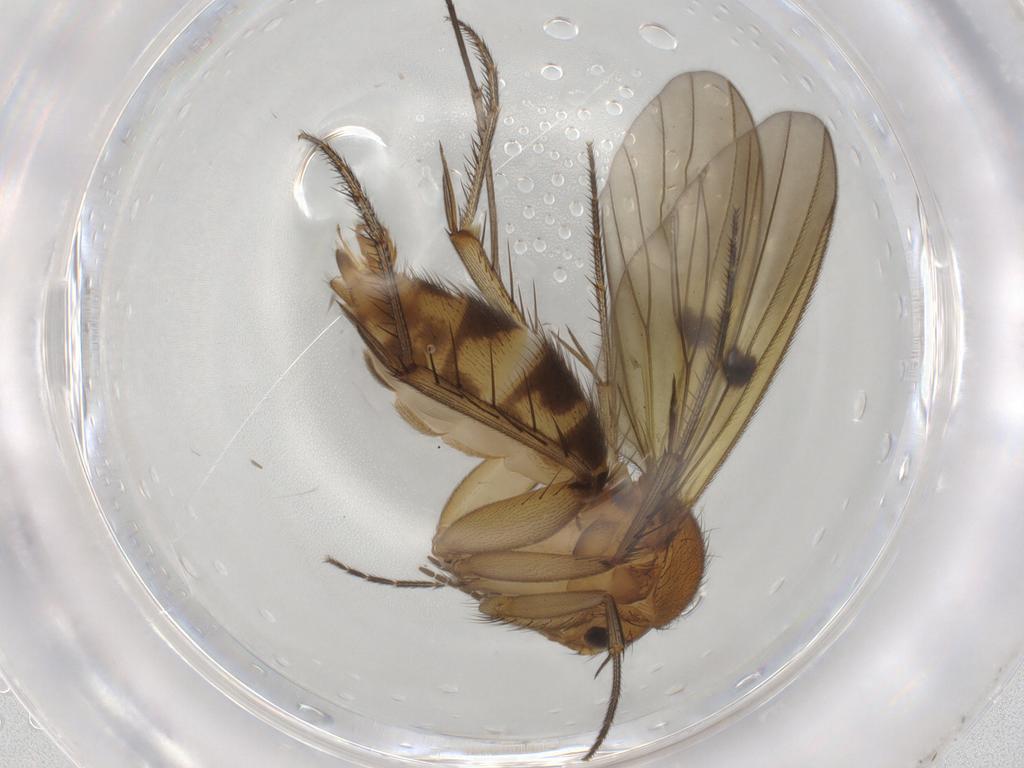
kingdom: Animalia
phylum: Arthropoda
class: Insecta
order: Diptera
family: Mycetophilidae
